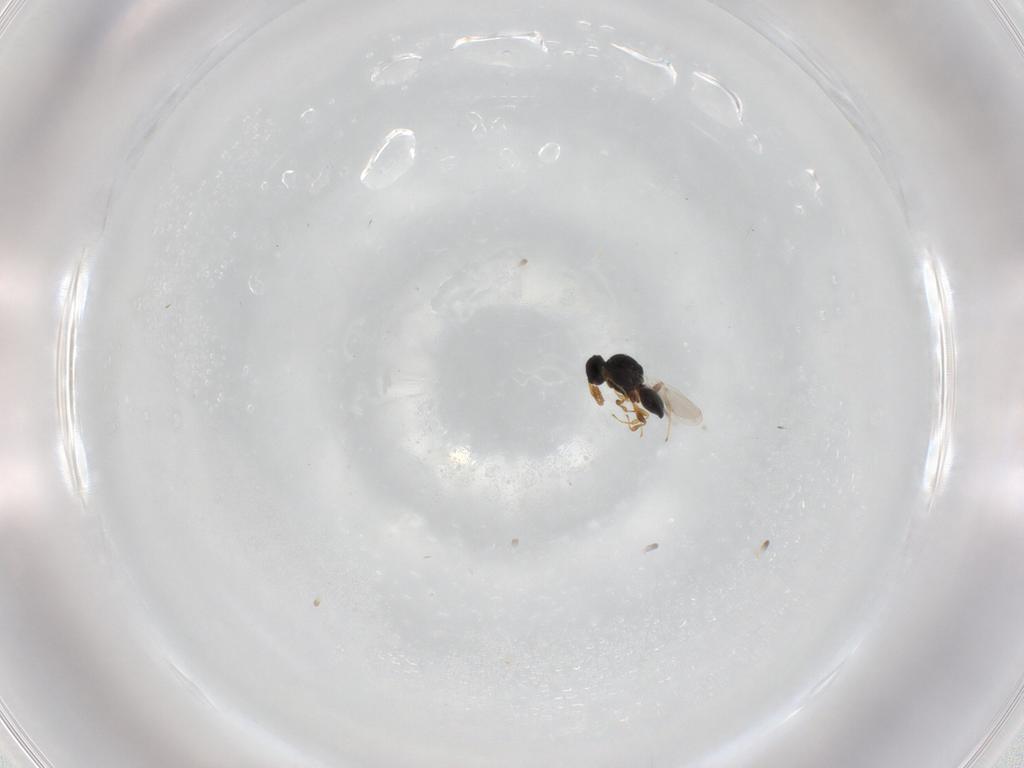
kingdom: Animalia
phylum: Arthropoda
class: Insecta
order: Hymenoptera
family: Platygastridae
